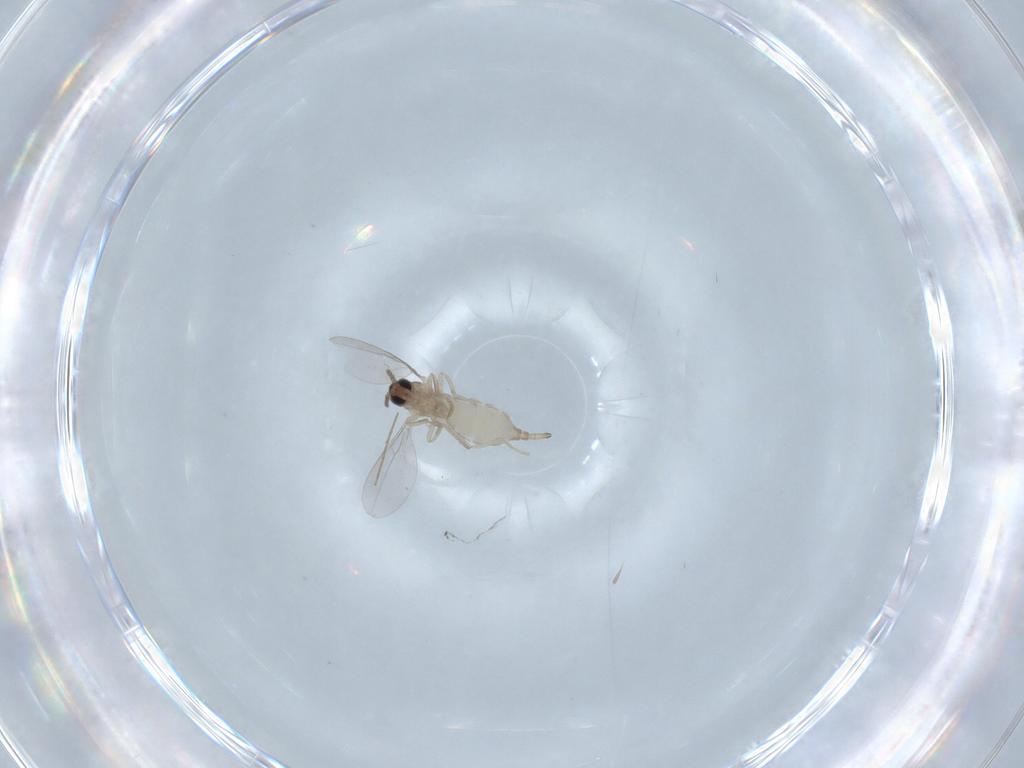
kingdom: Animalia
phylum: Arthropoda
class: Insecta
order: Diptera
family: Cecidomyiidae
